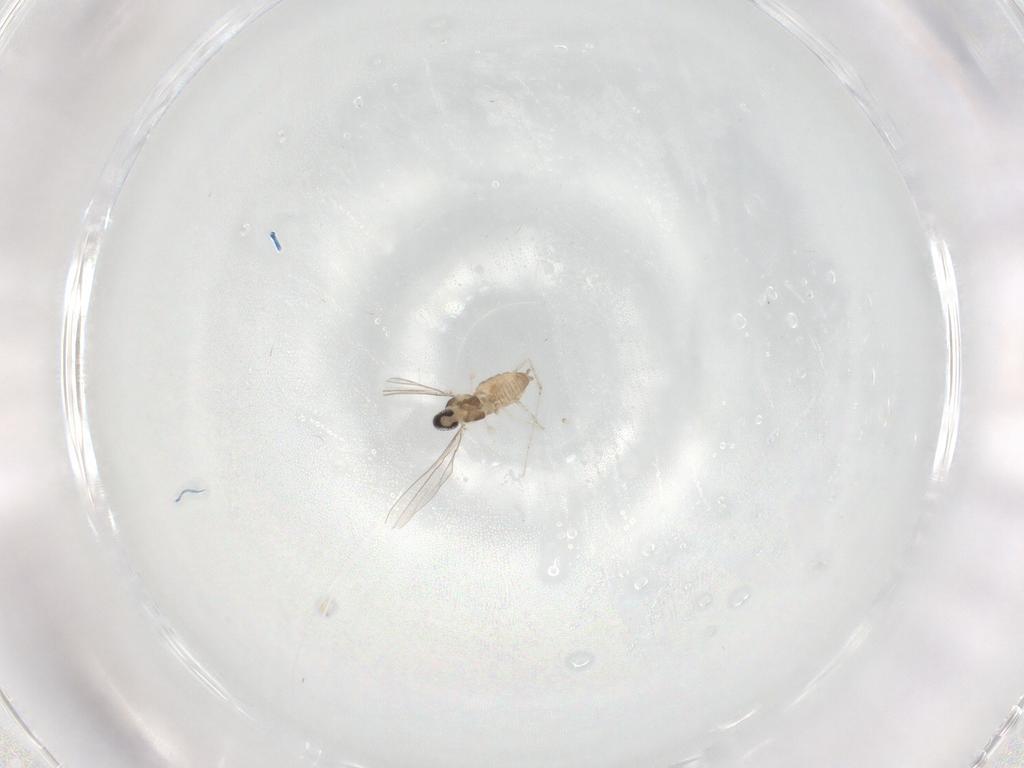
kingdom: Animalia
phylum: Arthropoda
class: Insecta
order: Diptera
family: Cecidomyiidae
